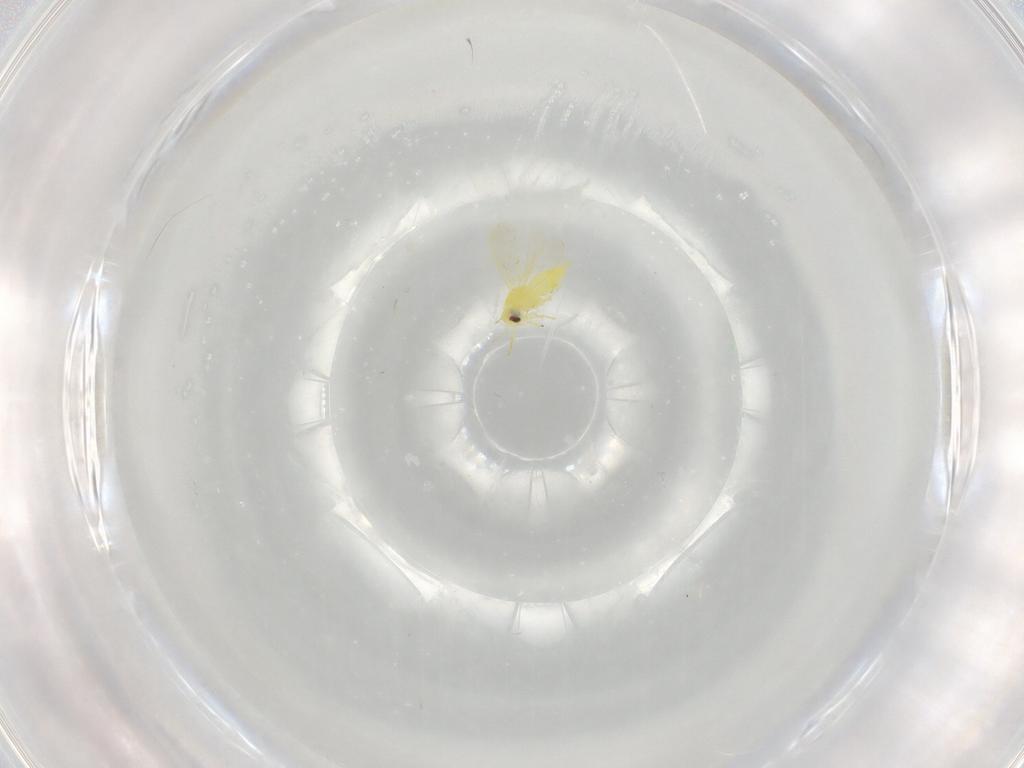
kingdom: Animalia
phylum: Arthropoda
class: Insecta
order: Hemiptera
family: Aleyrodidae
